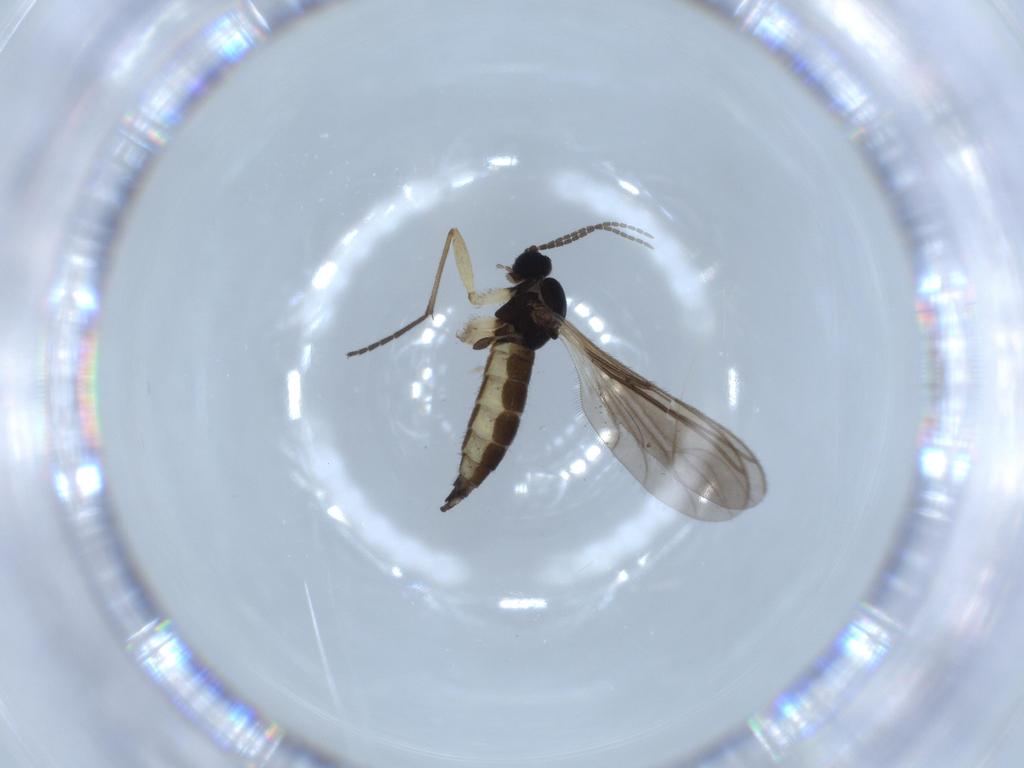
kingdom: Animalia
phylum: Arthropoda
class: Insecta
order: Diptera
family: Sciaridae
